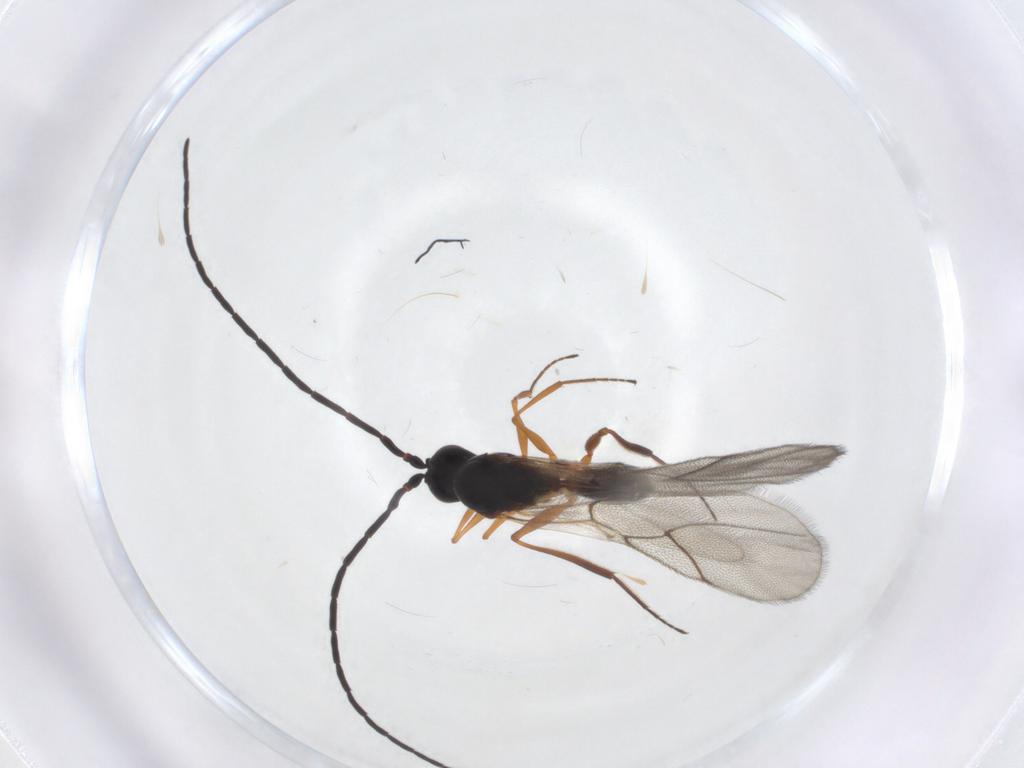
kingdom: Animalia
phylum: Arthropoda
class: Insecta
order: Hymenoptera
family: Figitidae
